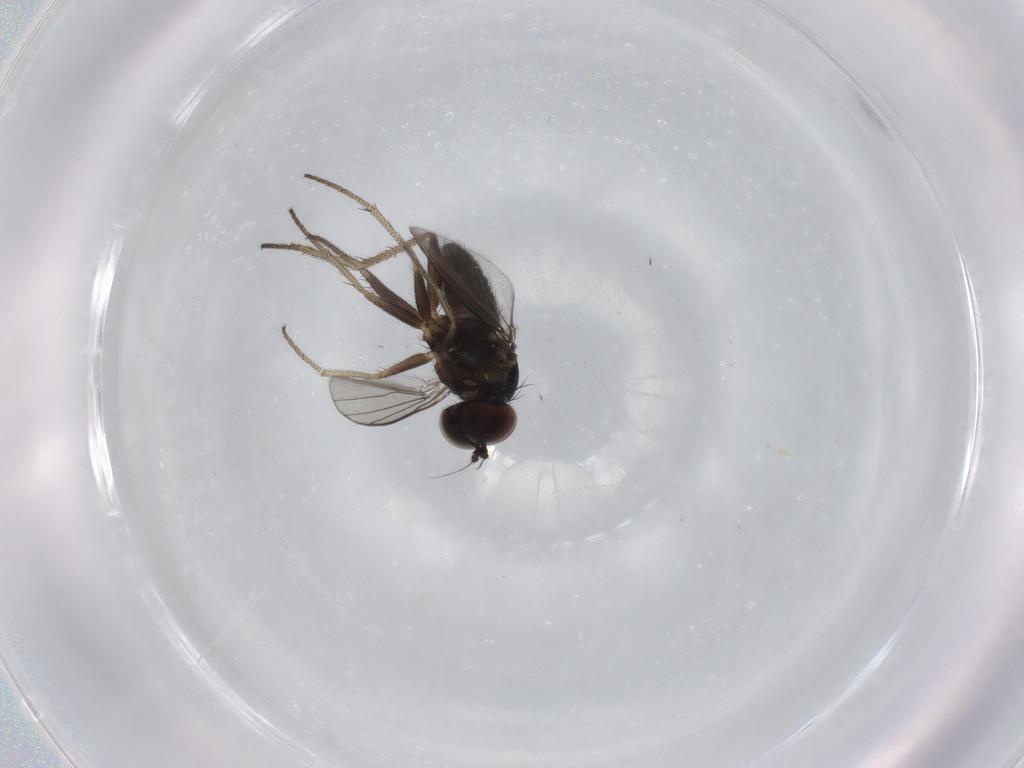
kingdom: Animalia
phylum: Arthropoda
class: Insecta
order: Diptera
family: Dolichopodidae
